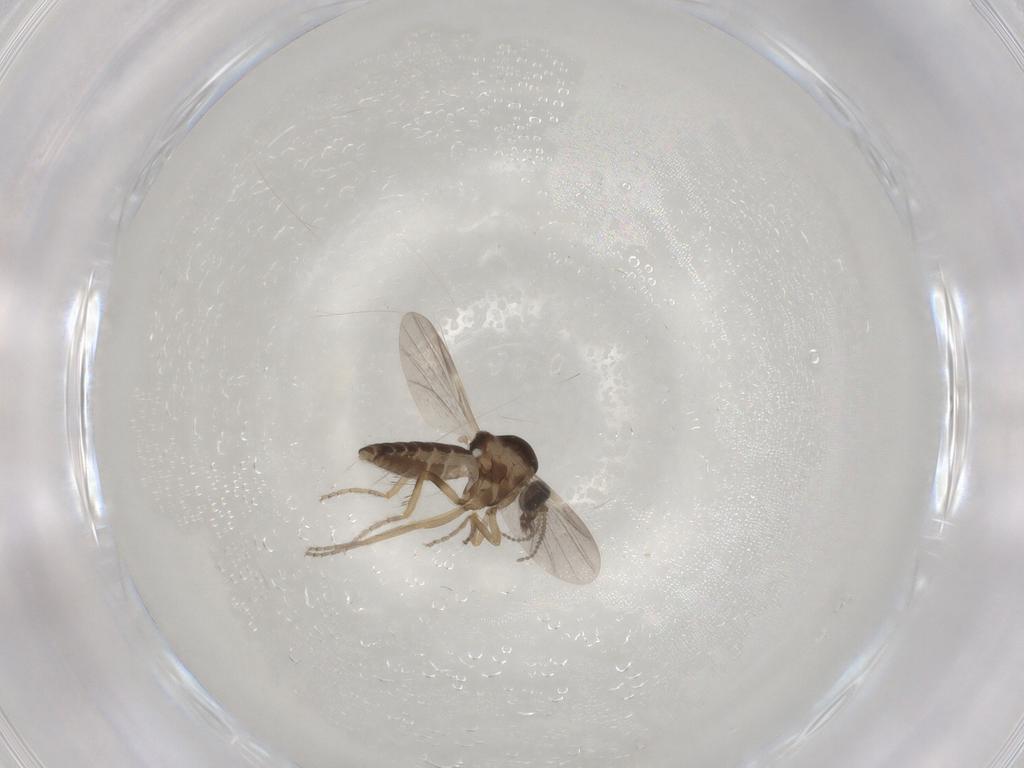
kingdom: Animalia
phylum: Arthropoda
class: Insecta
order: Diptera
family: Ceratopogonidae
